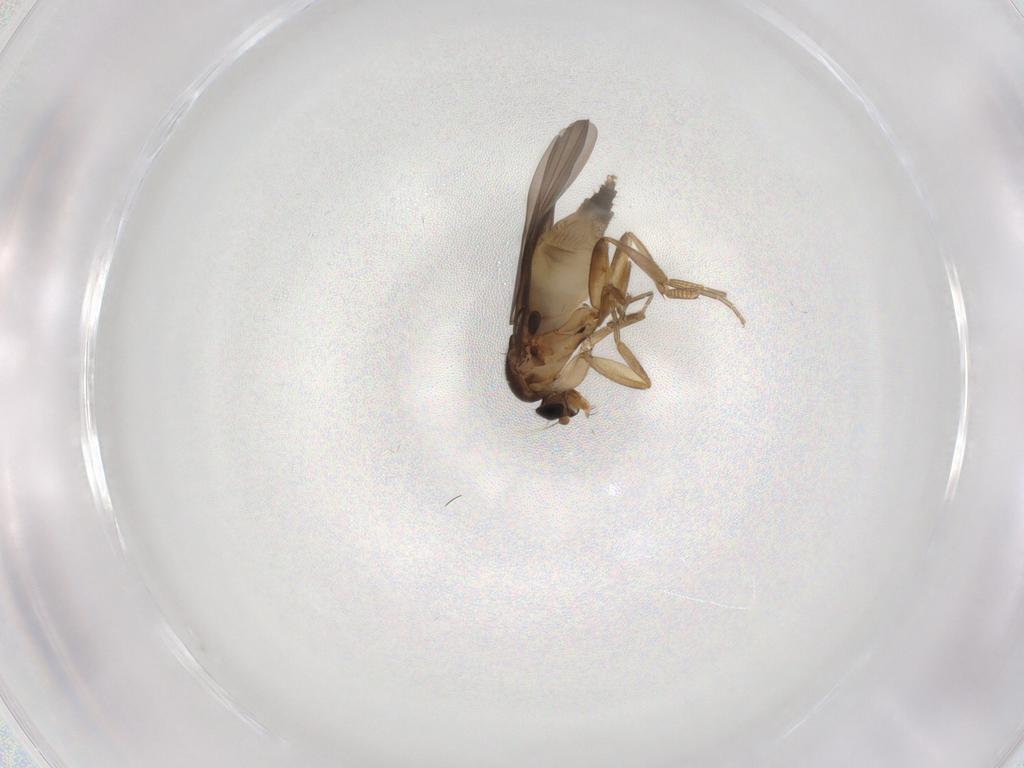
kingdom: Animalia
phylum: Arthropoda
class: Insecta
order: Diptera
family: Phoridae
